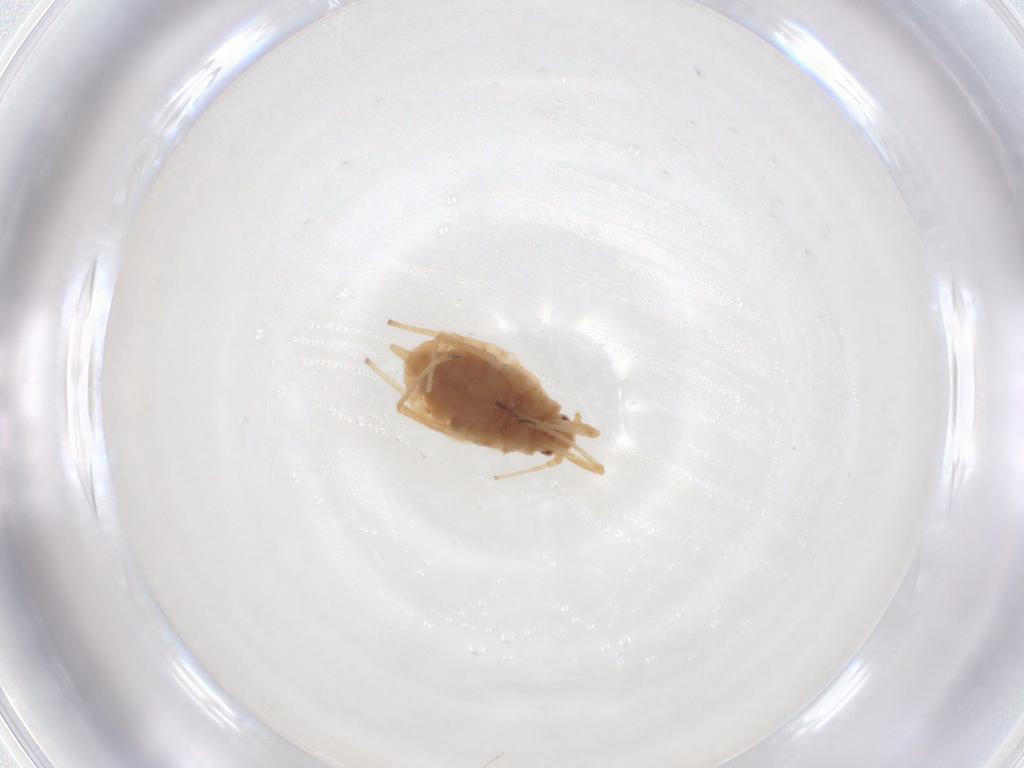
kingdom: Animalia
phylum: Arthropoda
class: Insecta
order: Hemiptera
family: Aphididae
